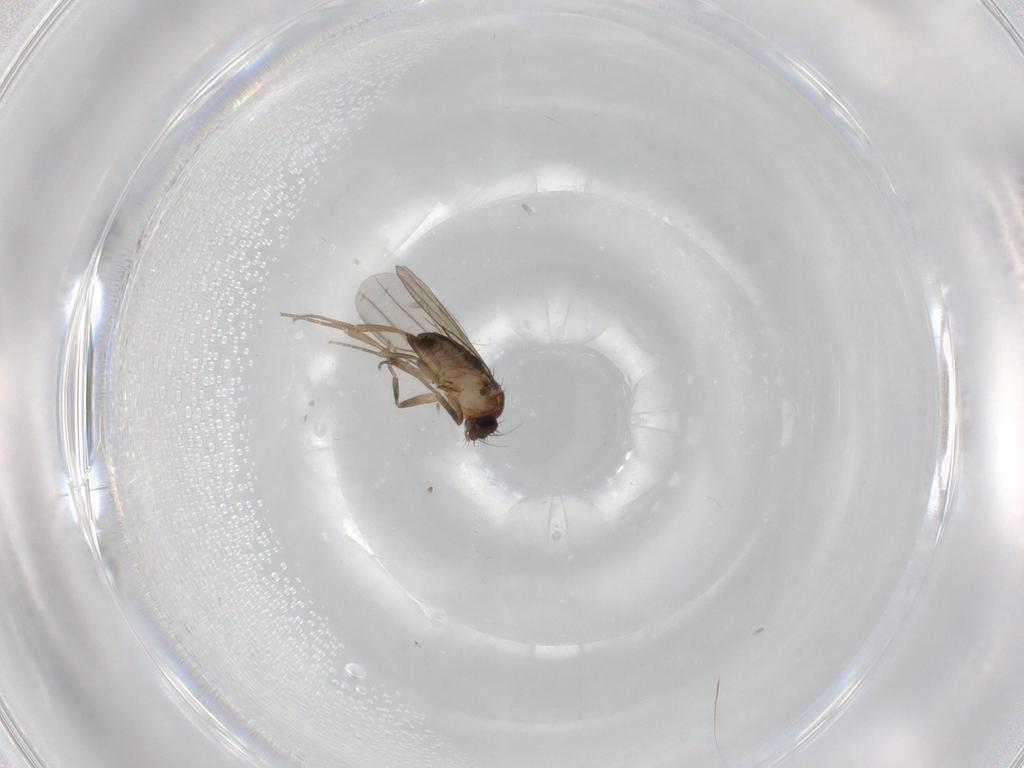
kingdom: Animalia
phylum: Arthropoda
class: Insecta
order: Diptera
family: Phoridae
